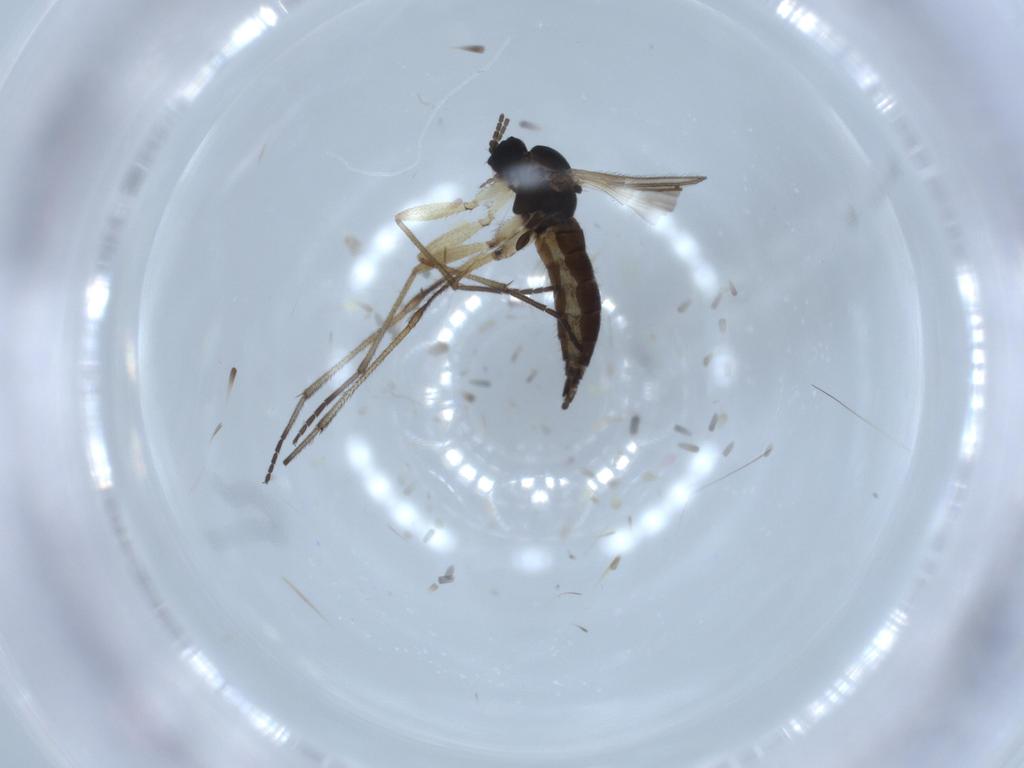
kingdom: Animalia
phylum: Arthropoda
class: Insecta
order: Diptera
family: Sciaridae
